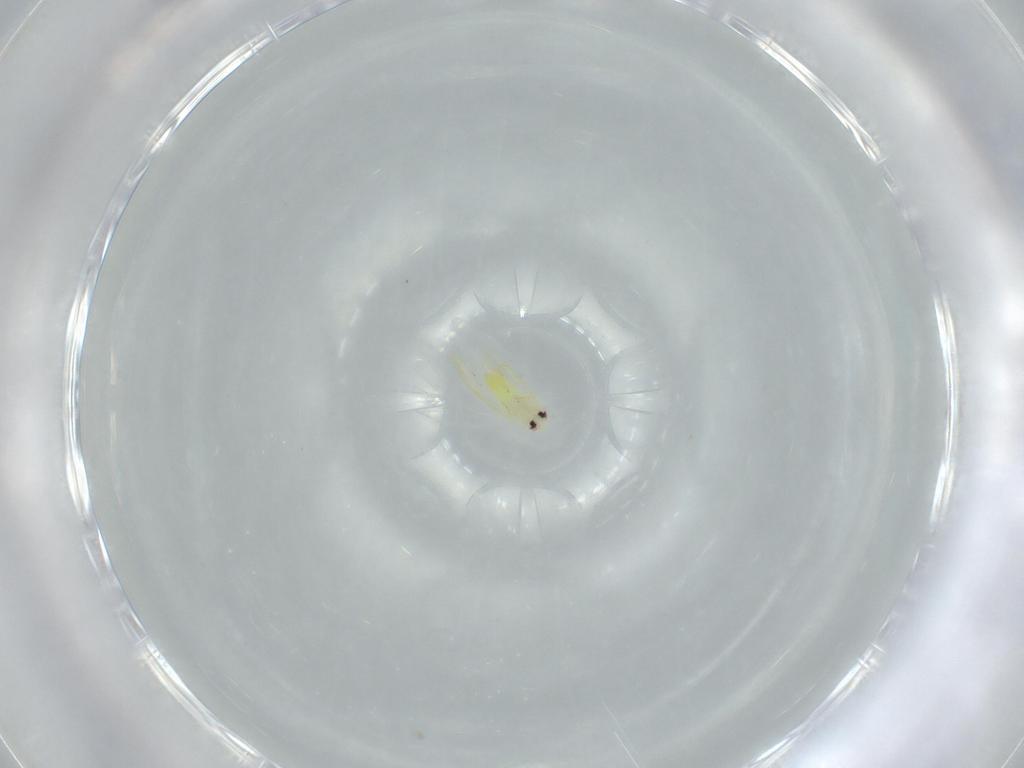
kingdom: Animalia
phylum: Arthropoda
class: Insecta
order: Hemiptera
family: Aleyrodidae
